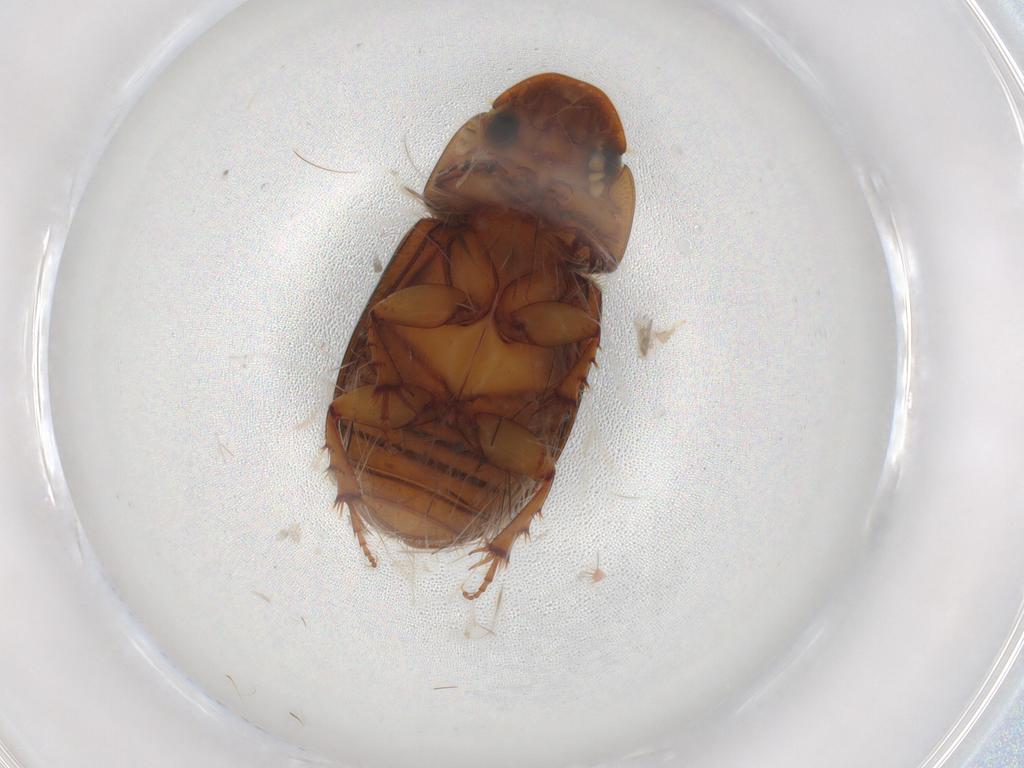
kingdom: Animalia
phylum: Arthropoda
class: Insecta
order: Coleoptera
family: Scarabaeidae
